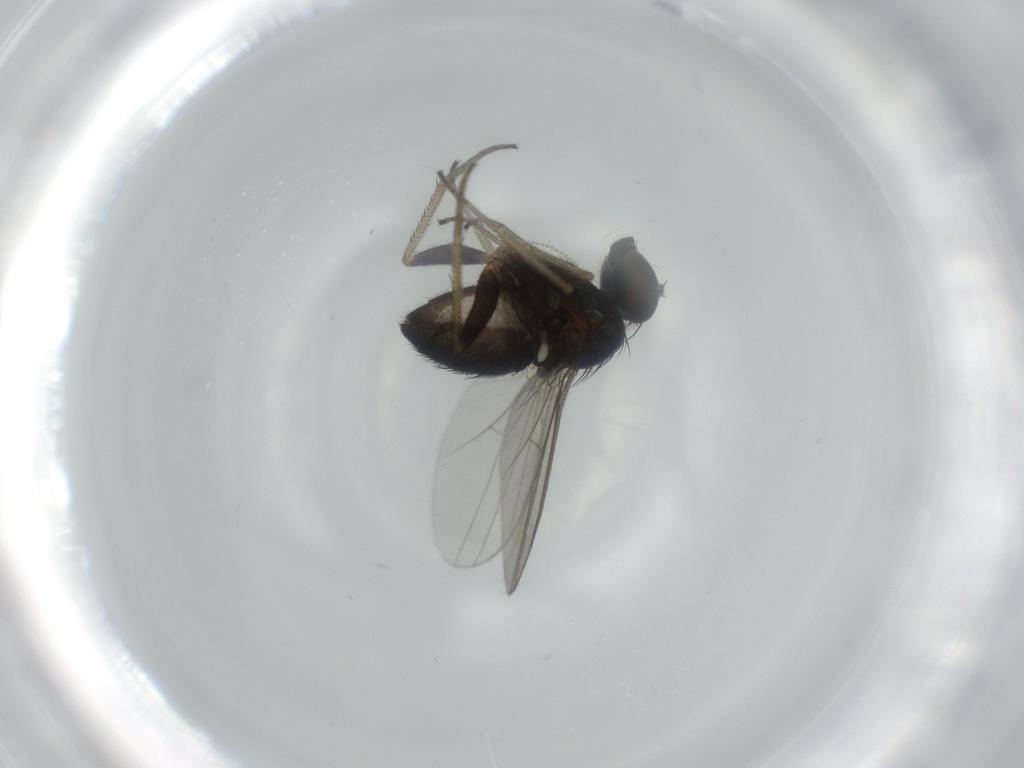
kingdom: Animalia
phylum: Arthropoda
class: Insecta
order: Diptera
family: Dolichopodidae
